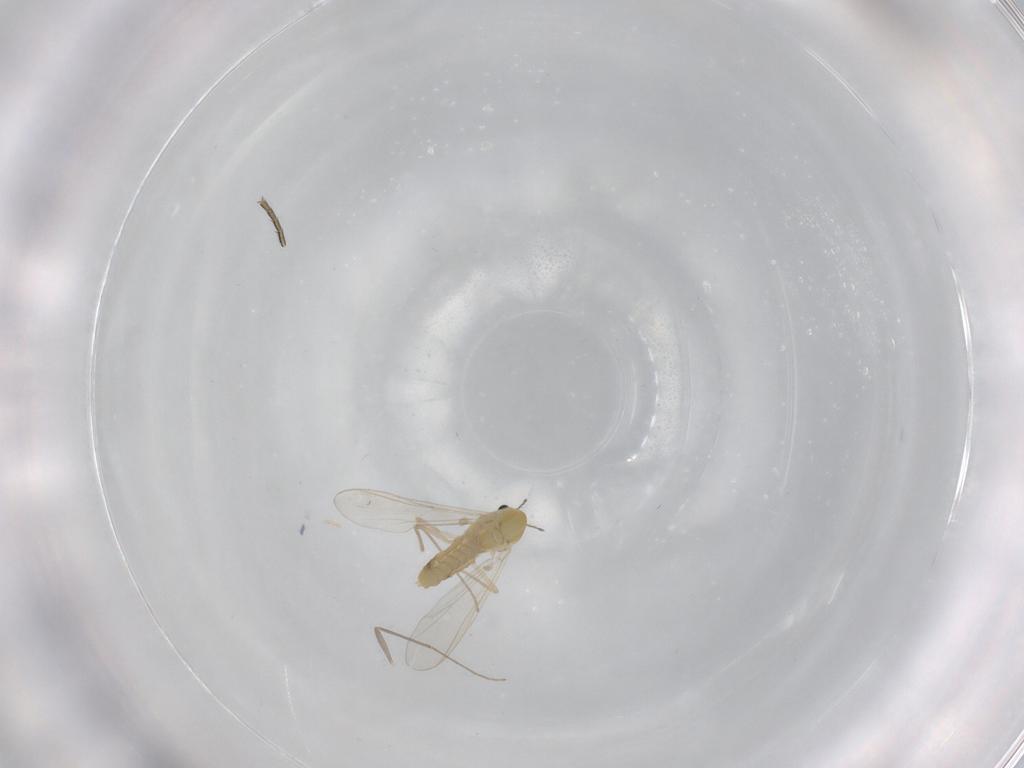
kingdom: Animalia
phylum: Arthropoda
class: Insecta
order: Diptera
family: Chironomidae
